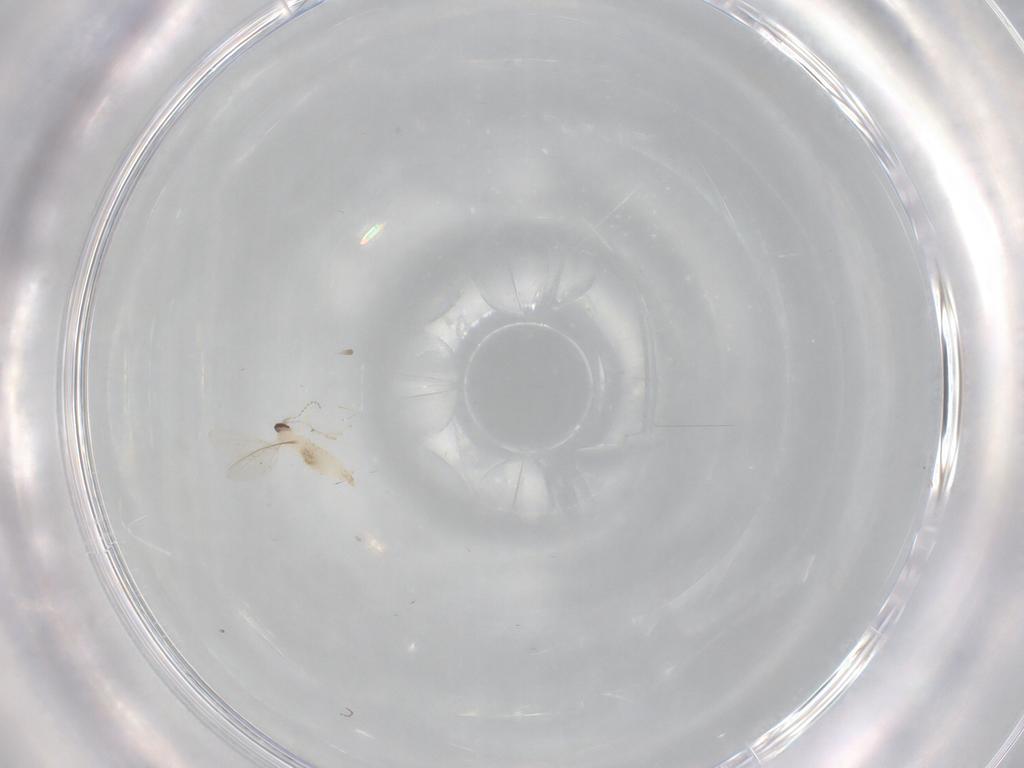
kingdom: Animalia
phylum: Arthropoda
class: Insecta
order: Diptera
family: Cecidomyiidae
